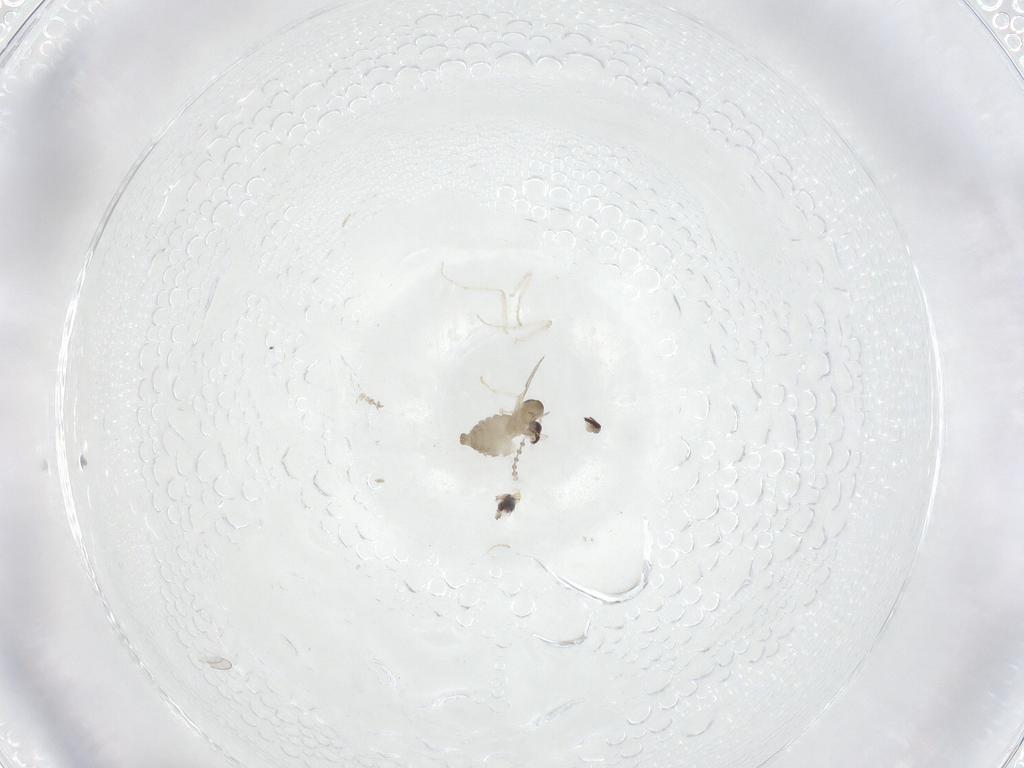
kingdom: Animalia
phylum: Arthropoda
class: Insecta
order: Diptera
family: Cecidomyiidae
